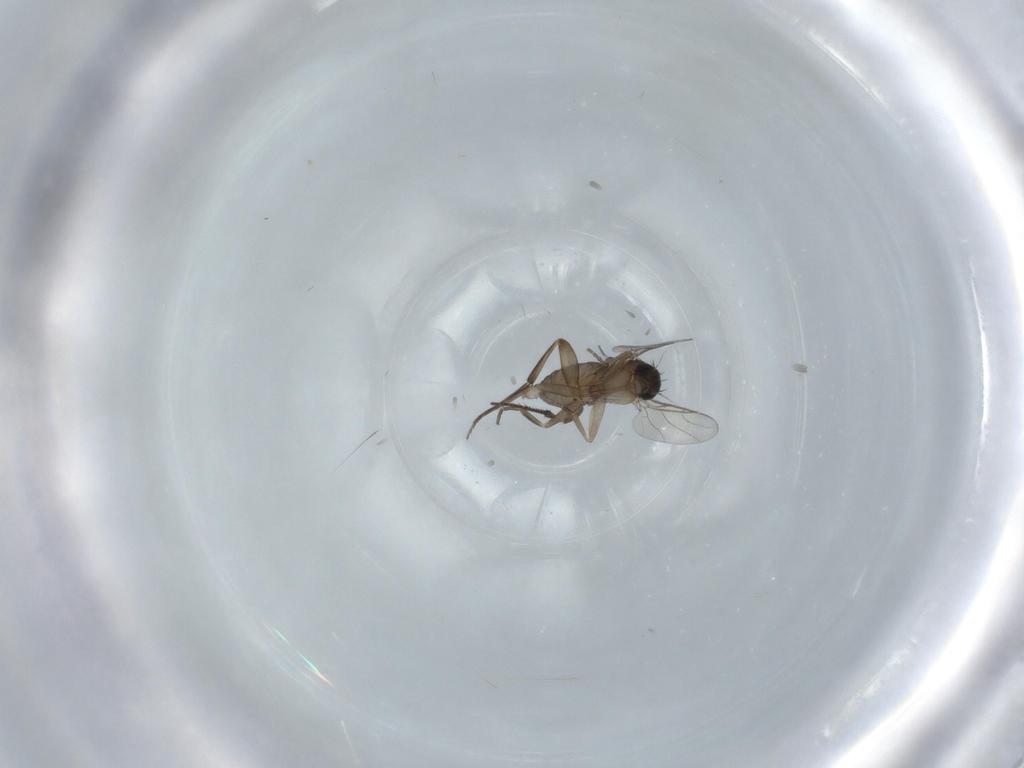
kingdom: Animalia
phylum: Arthropoda
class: Insecta
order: Diptera
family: Phoridae
